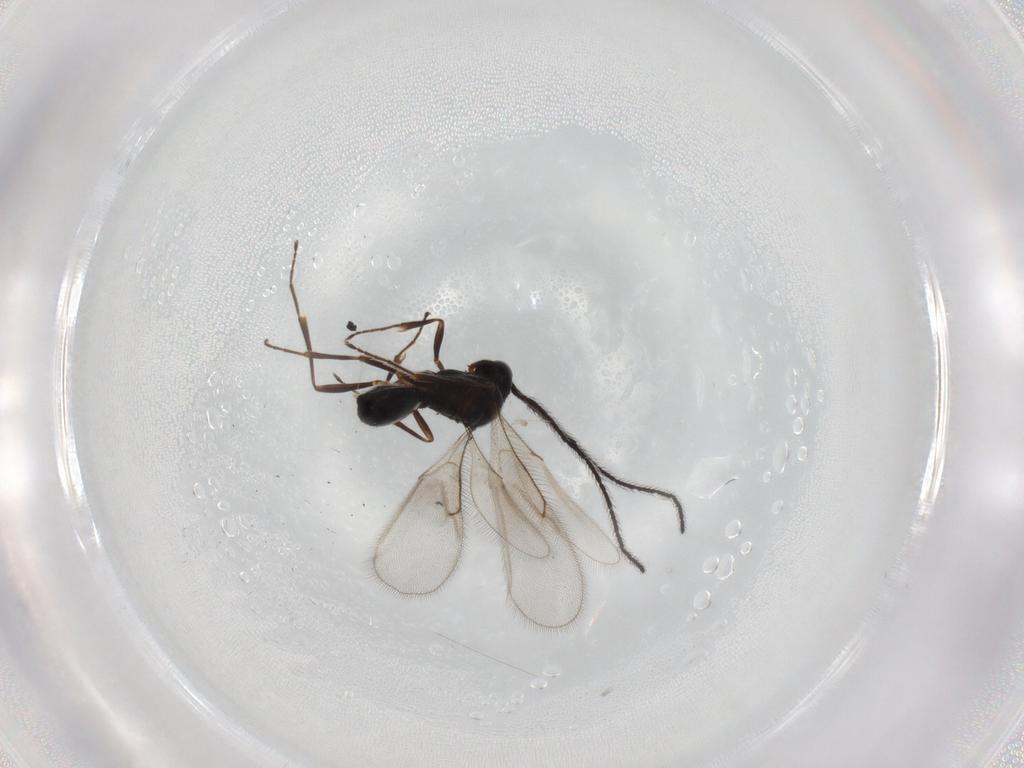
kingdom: Animalia
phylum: Arthropoda
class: Insecta
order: Hymenoptera
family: Scelionidae
